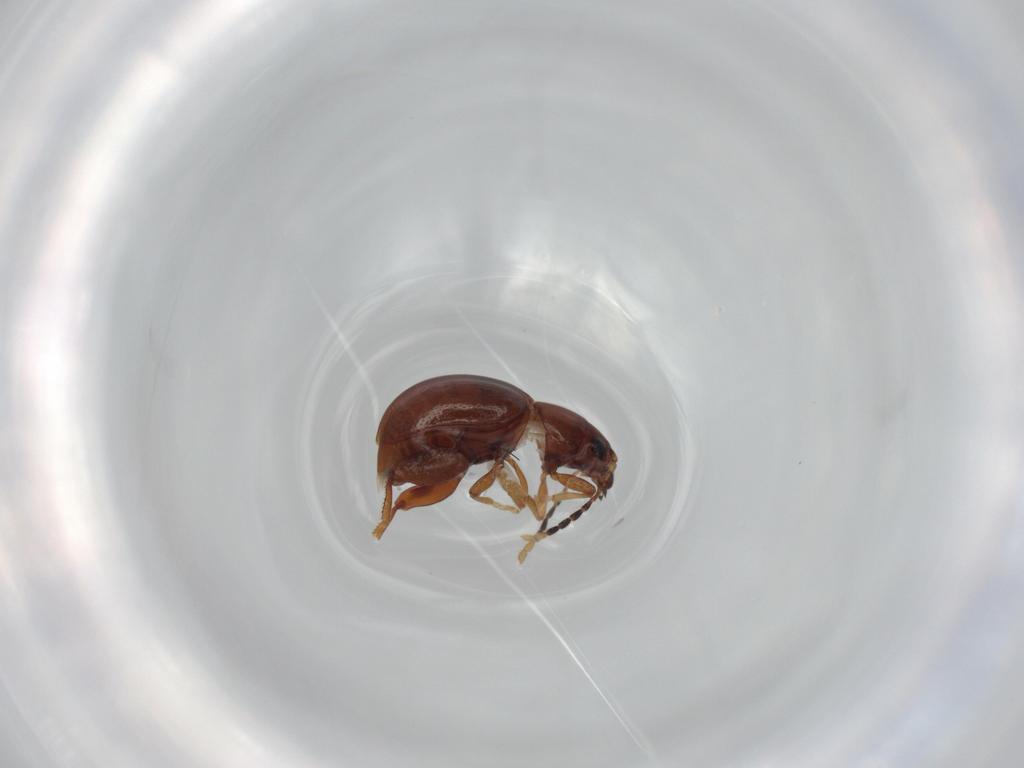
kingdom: Animalia
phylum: Arthropoda
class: Insecta
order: Coleoptera
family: Chrysomelidae
